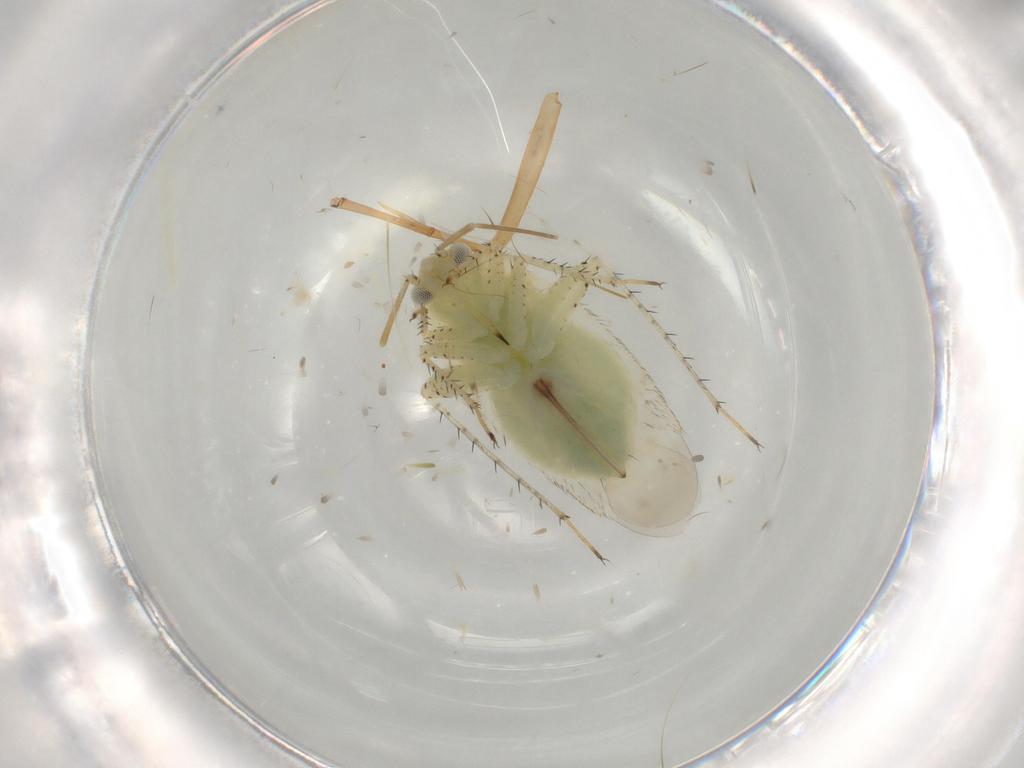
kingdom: Animalia
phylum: Arthropoda
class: Insecta
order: Hemiptera
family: Miridae
